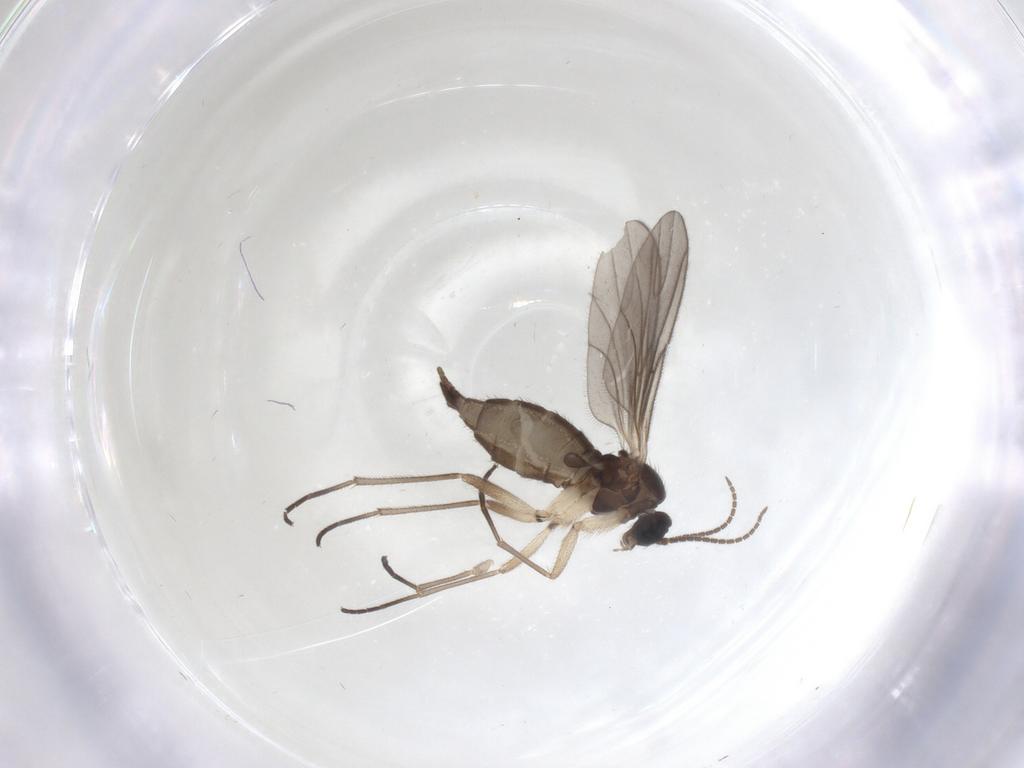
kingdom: Animalia
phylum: Arthropoda
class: Insecta
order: Diptera
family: Sciaridae
